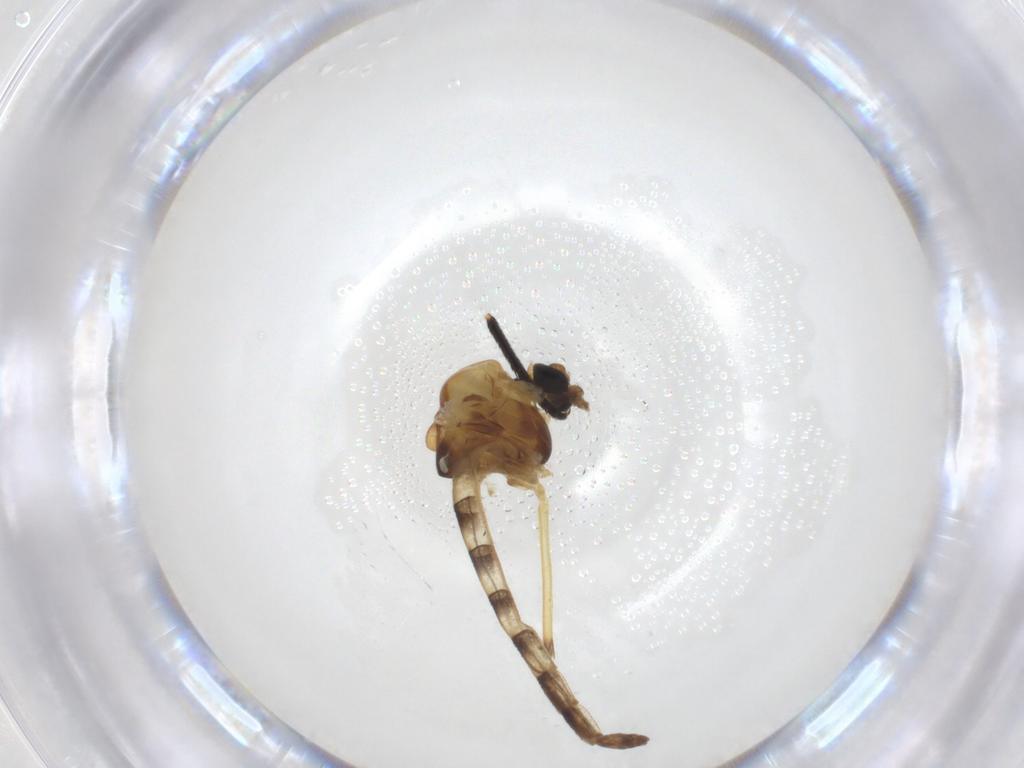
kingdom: Animalia
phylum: Arthropoda
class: Insecta
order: Diptera
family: Chironomidae
